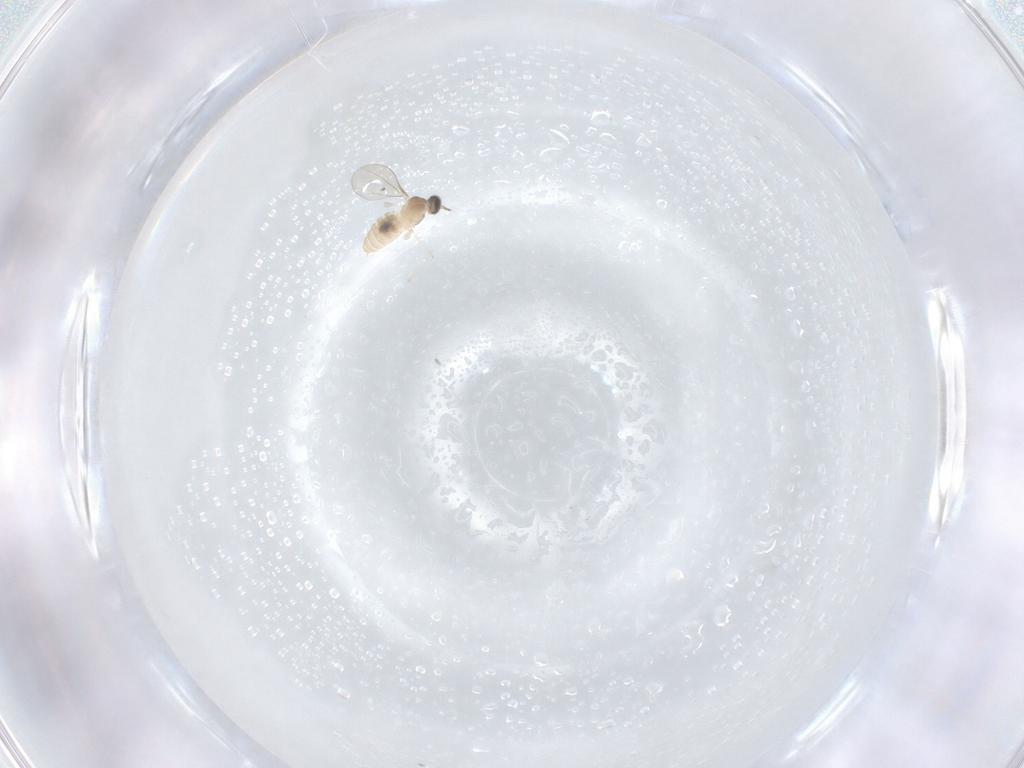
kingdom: Animalia
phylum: Arthropoda
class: Insecta
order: Diptera
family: Cecidomyiidae
